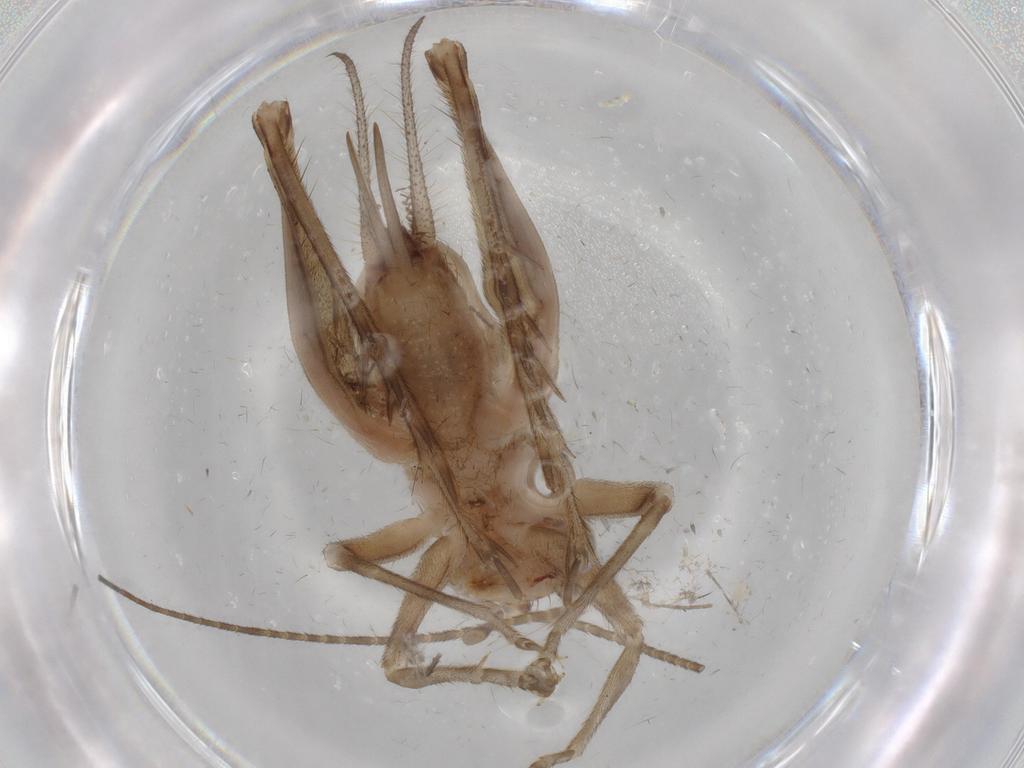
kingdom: Animalia
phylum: Arthropoda
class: Insecta
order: Orthoptera
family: Trigonidiidae
